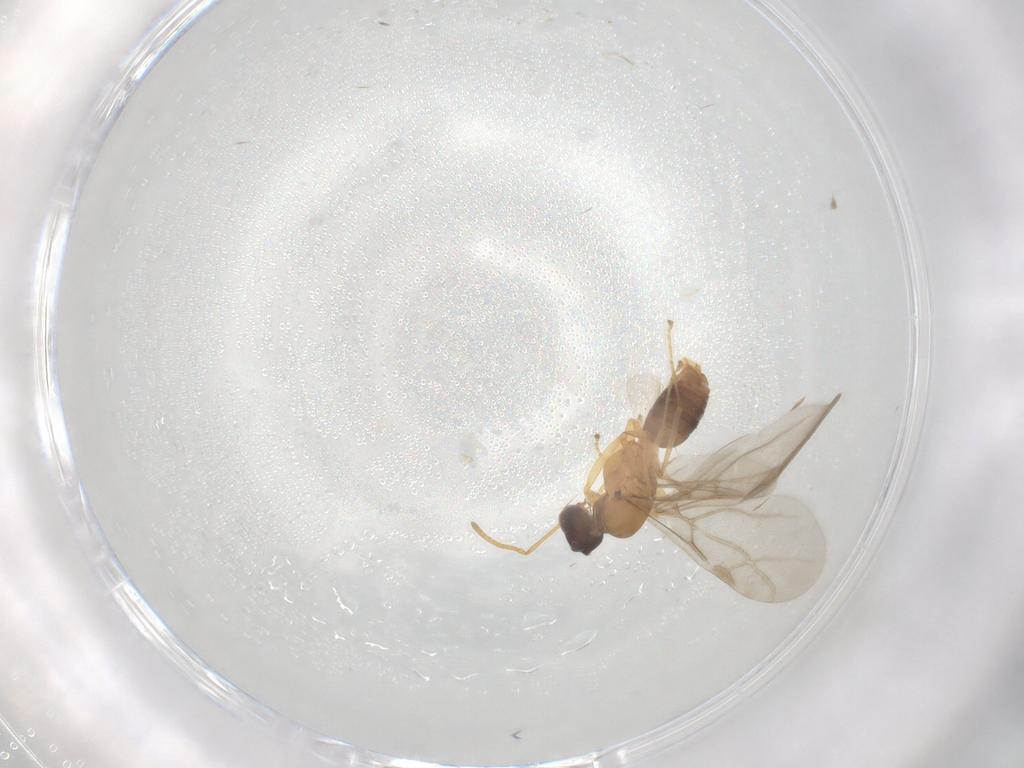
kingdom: Animalia
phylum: Arthropoda
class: Insecta
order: Hymenoptera
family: Formicidae
